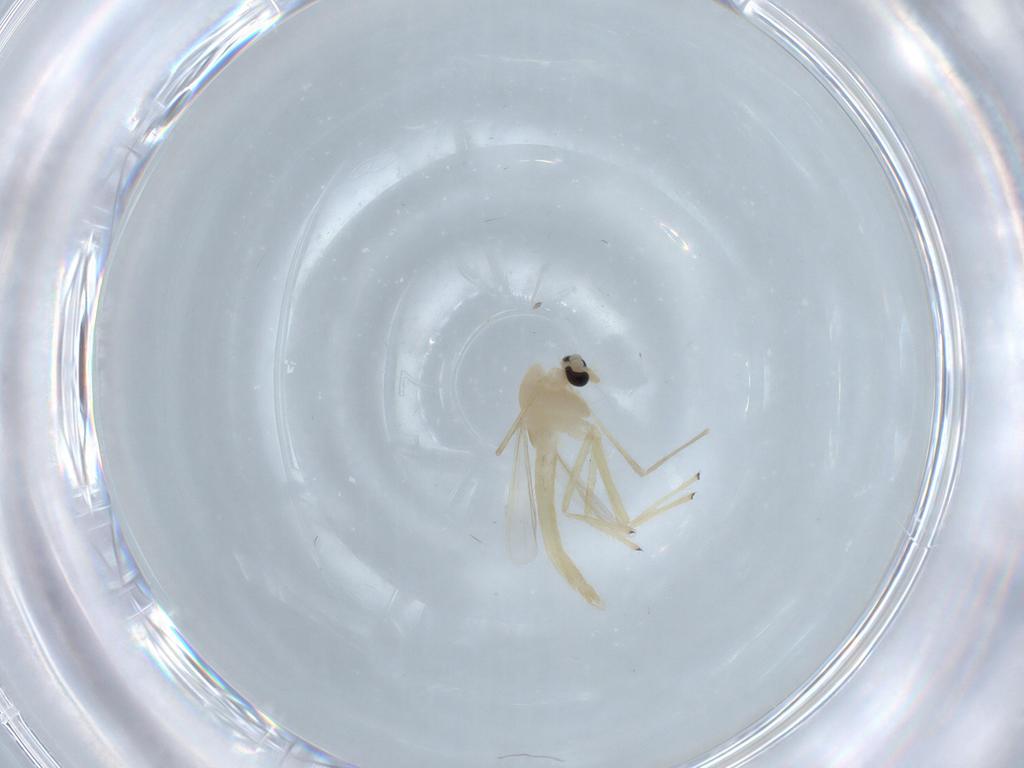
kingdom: Animalia
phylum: Arthropoda
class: Insecta
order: Diptera
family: Chironomidae
